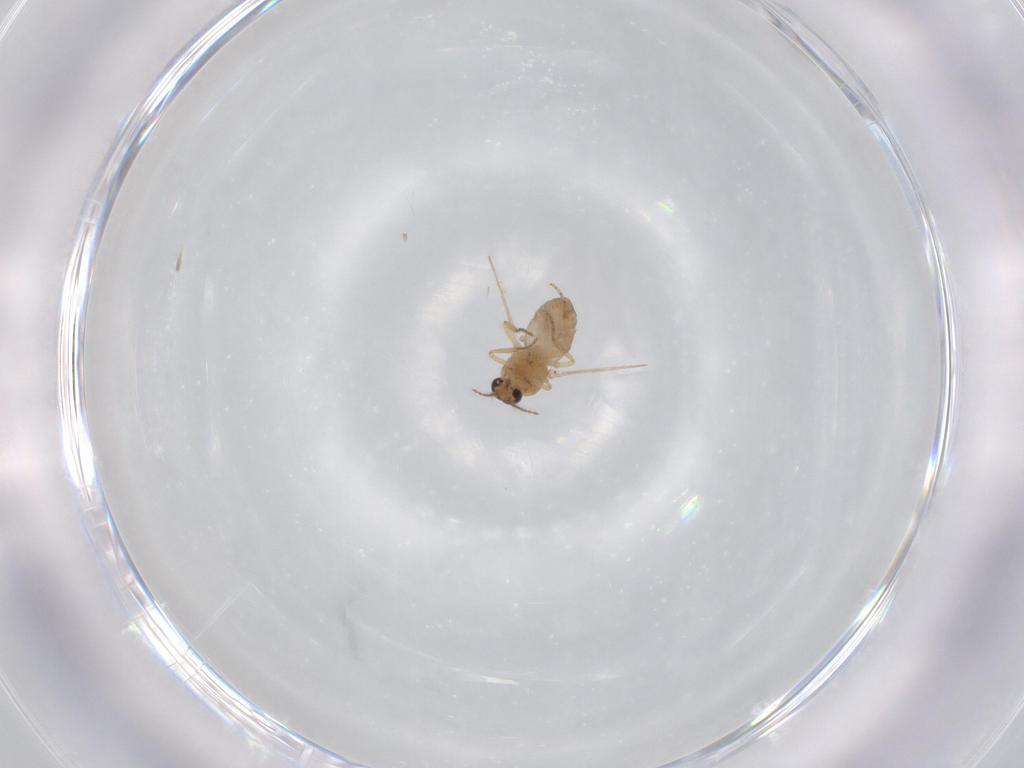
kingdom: Animalia
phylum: Arthropoda
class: Insecta
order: Diptera
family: Ceratopogonidae
